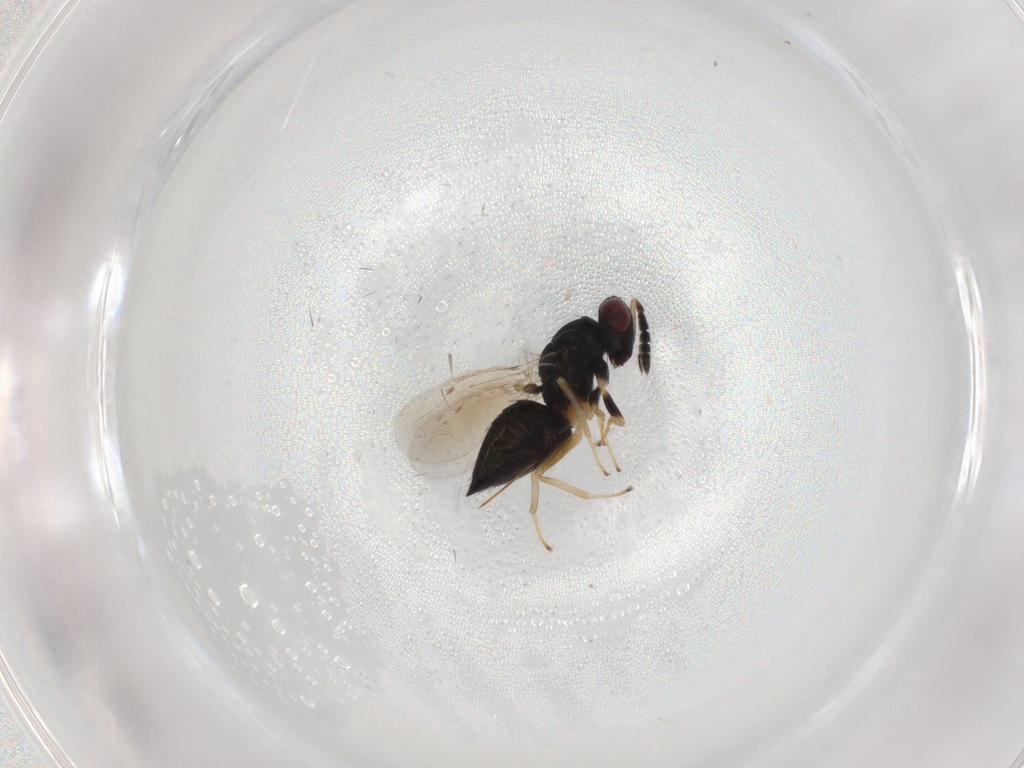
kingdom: Animalia
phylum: Arthropoda
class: Insecta
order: Hymenoptera
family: Eulophidae
